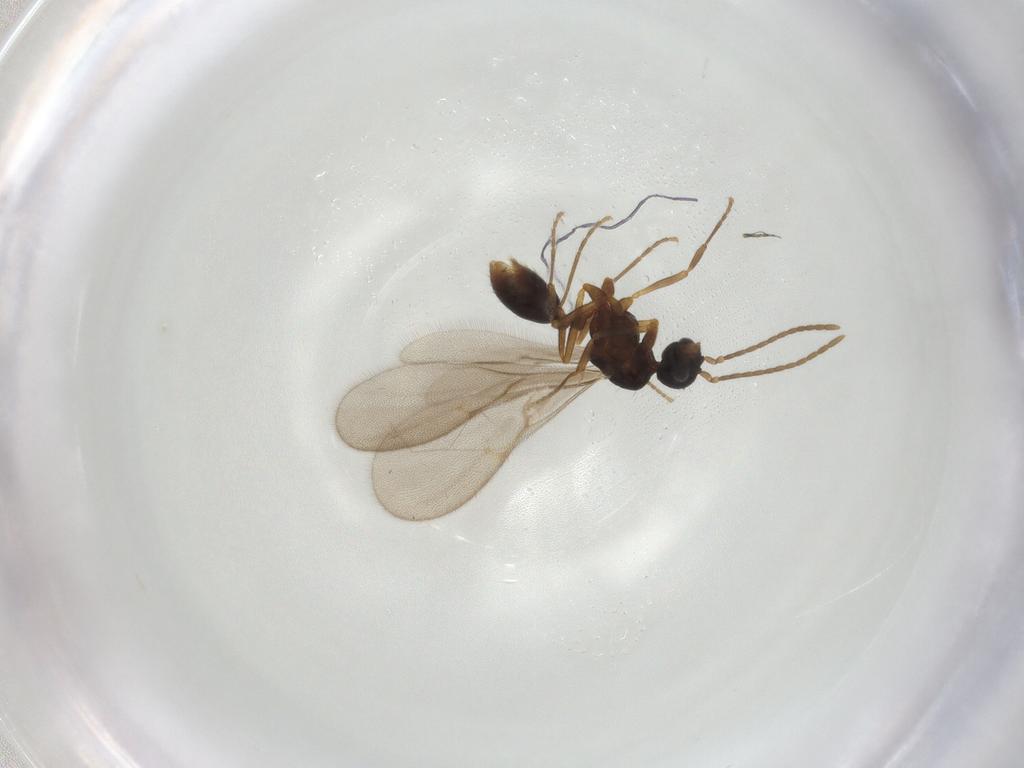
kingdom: Animalia
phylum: Arthropoda
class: Insecta
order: Hymenoptera
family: Formicidae
